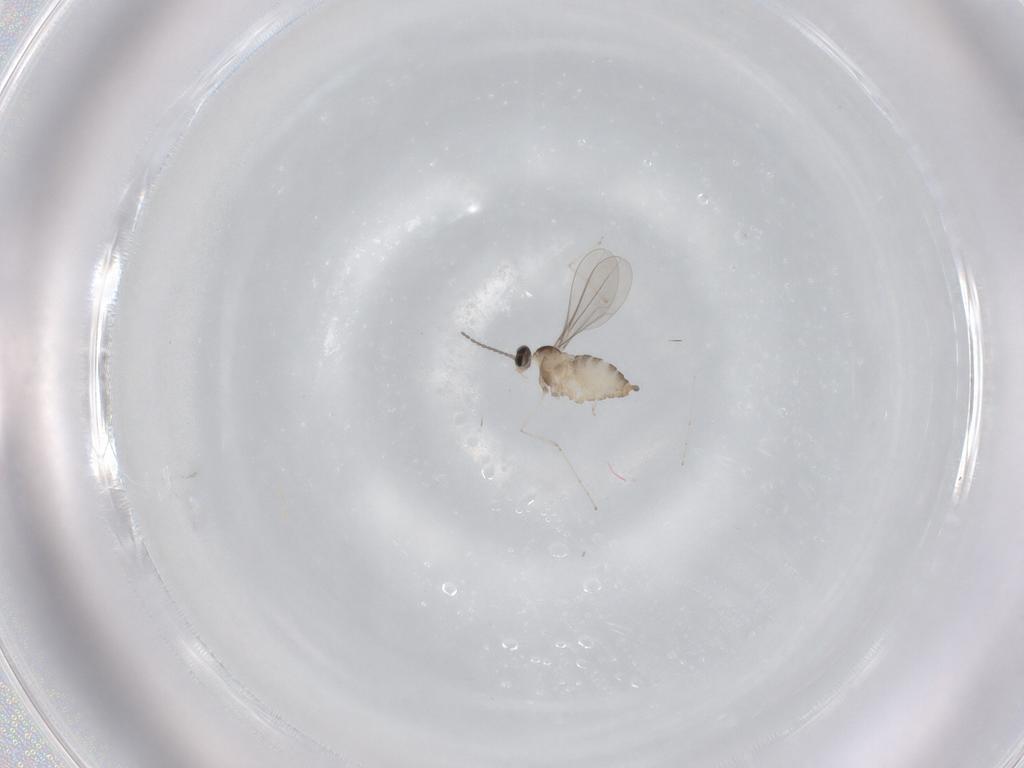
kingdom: Animalia
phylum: Arthropoda
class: Insecta
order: Diptera
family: Cecidomyiidae
